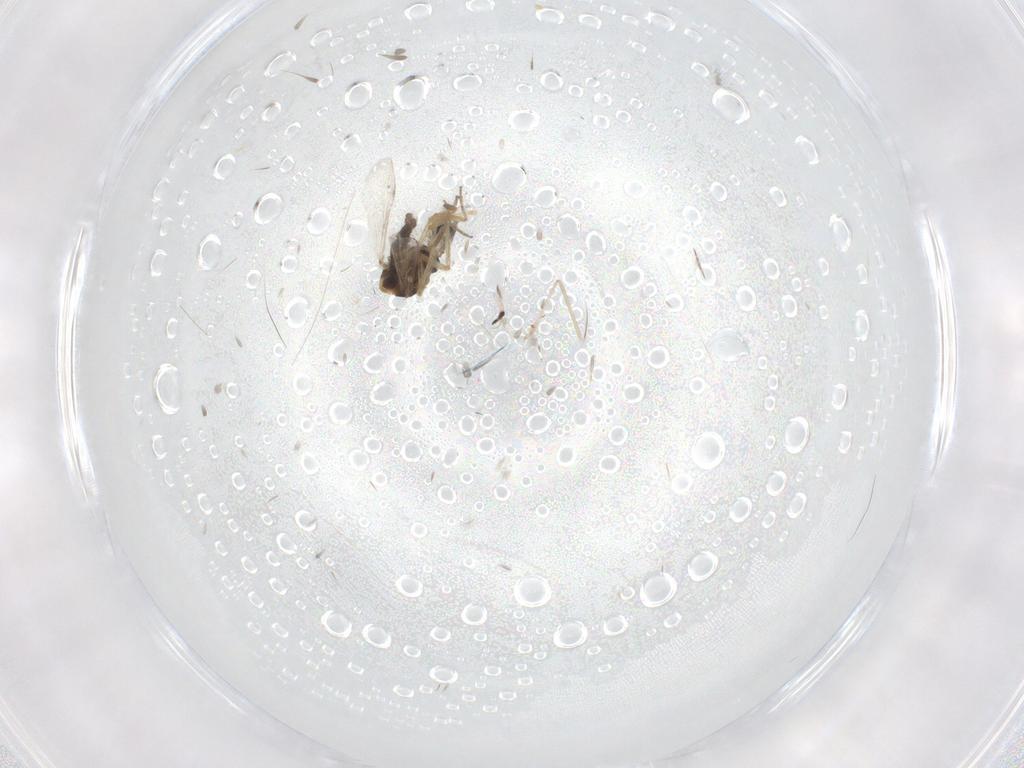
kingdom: Animalia
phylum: Arthropoda
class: Insecta
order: Diptera
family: Ceratopogonidae
